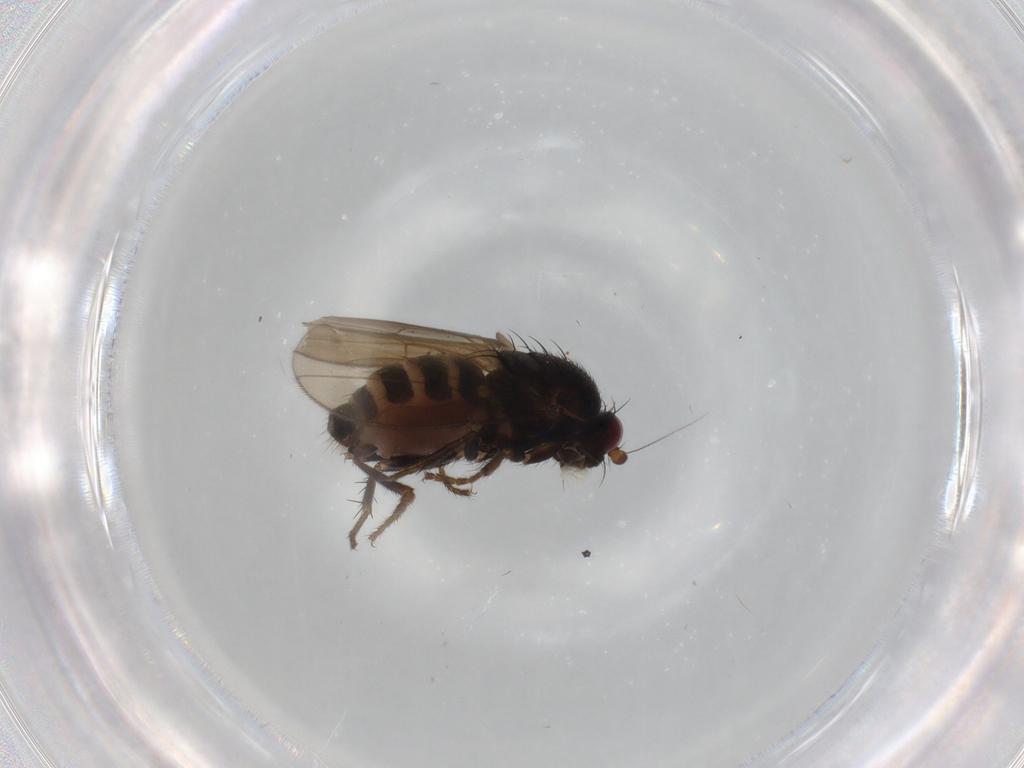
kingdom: Animalia
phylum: Arthropoda
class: Insecta
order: Diptera
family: Sphaeroceridae
